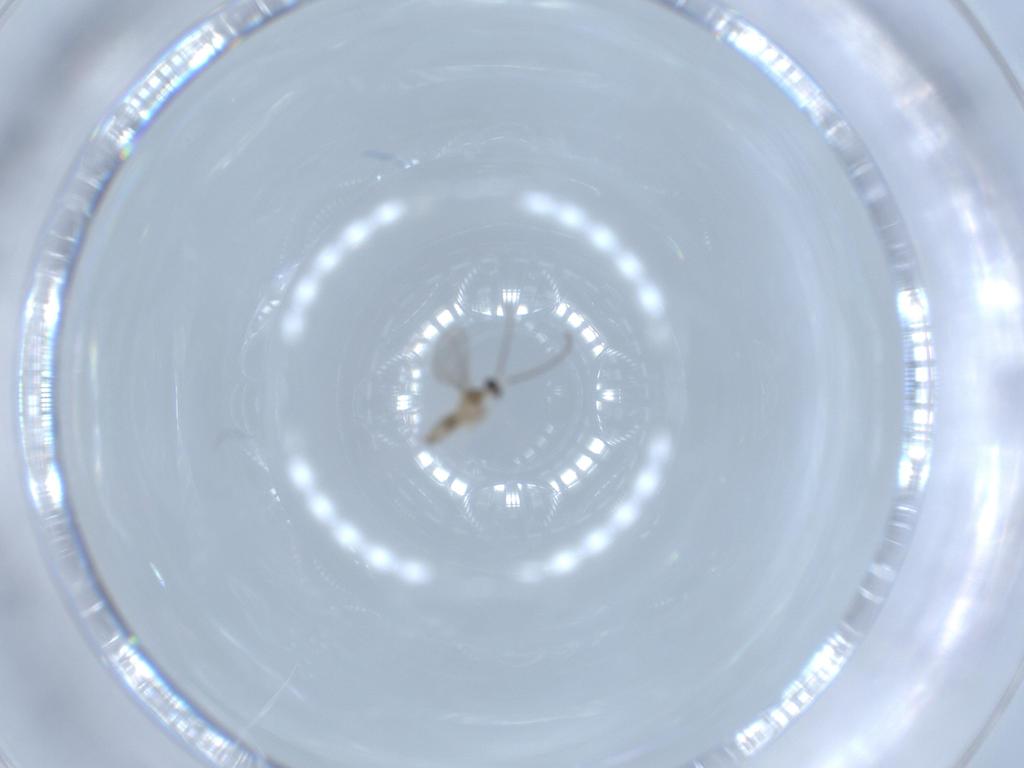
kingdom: Animalia
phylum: Arthropoda
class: Insecta
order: Diptera
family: Cecidomyiidae
